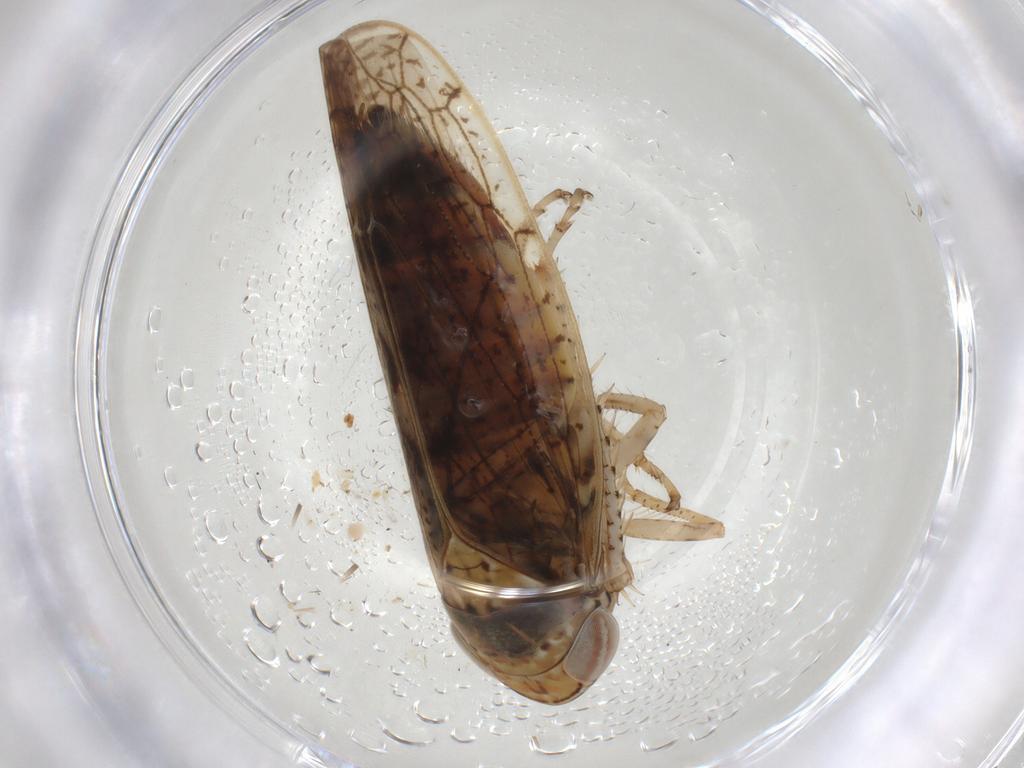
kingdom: Animalia
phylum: Arthropoda
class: Insecta
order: Hemiptera
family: Cicadellidae
